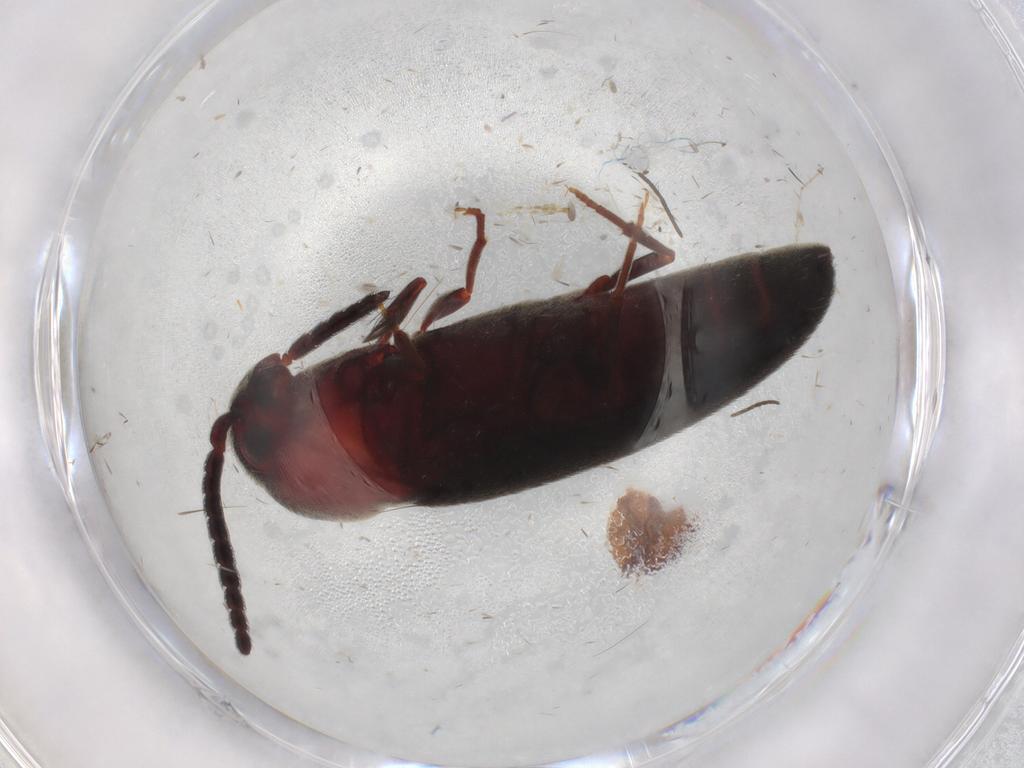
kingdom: Animalia
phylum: Arthropoda
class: Insecta
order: Coleoptera
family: Eucnemidae
